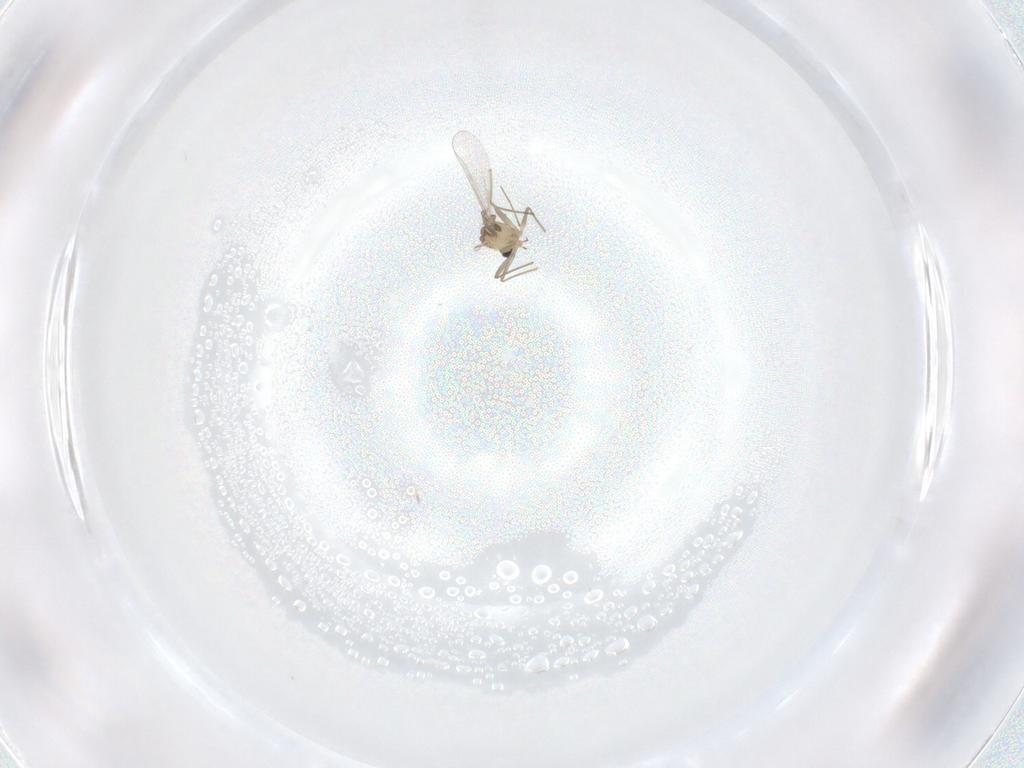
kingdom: Animalia
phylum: Arthropoda
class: Insecta
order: Diptera
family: Chironomidae
